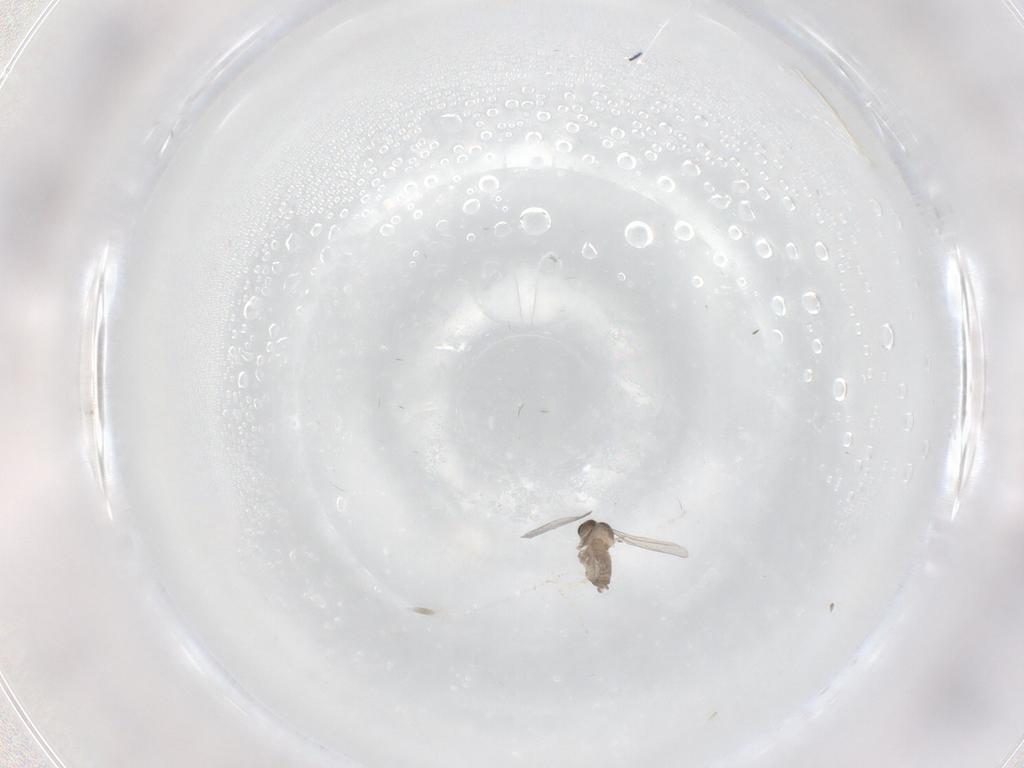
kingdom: Animalia
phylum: Arthropoda
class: Insecta
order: Diptera
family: Cecidomyiidae
